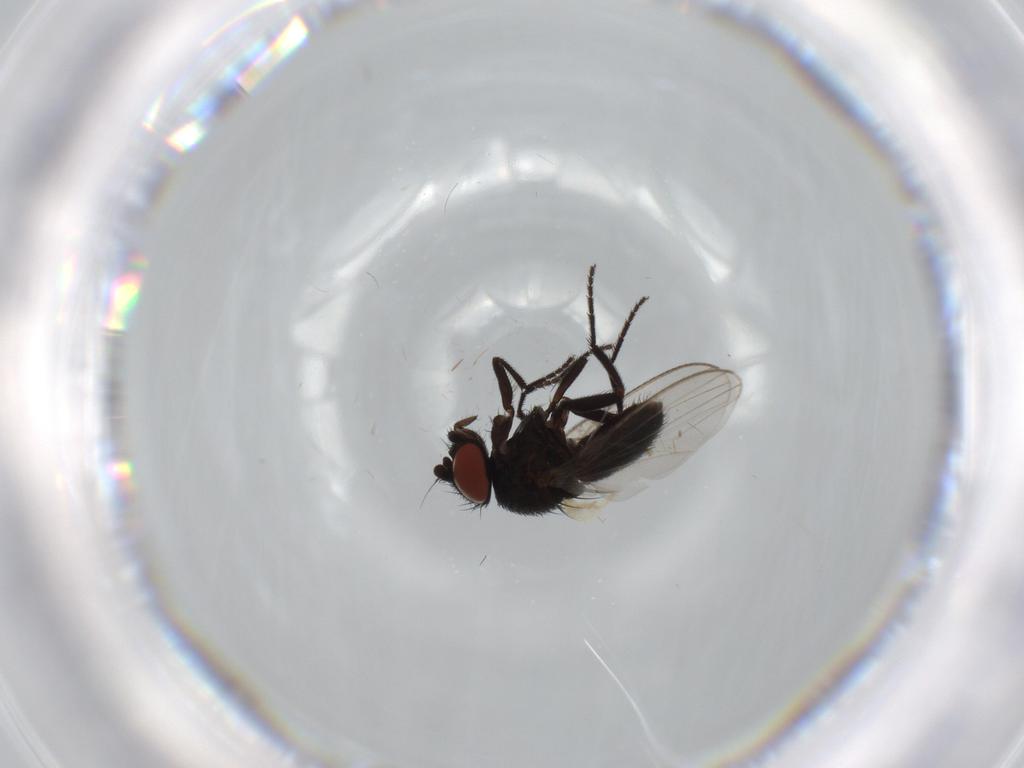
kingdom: Animalia
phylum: Arthropoda
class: Insecta
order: Diptera
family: Milichiidae
